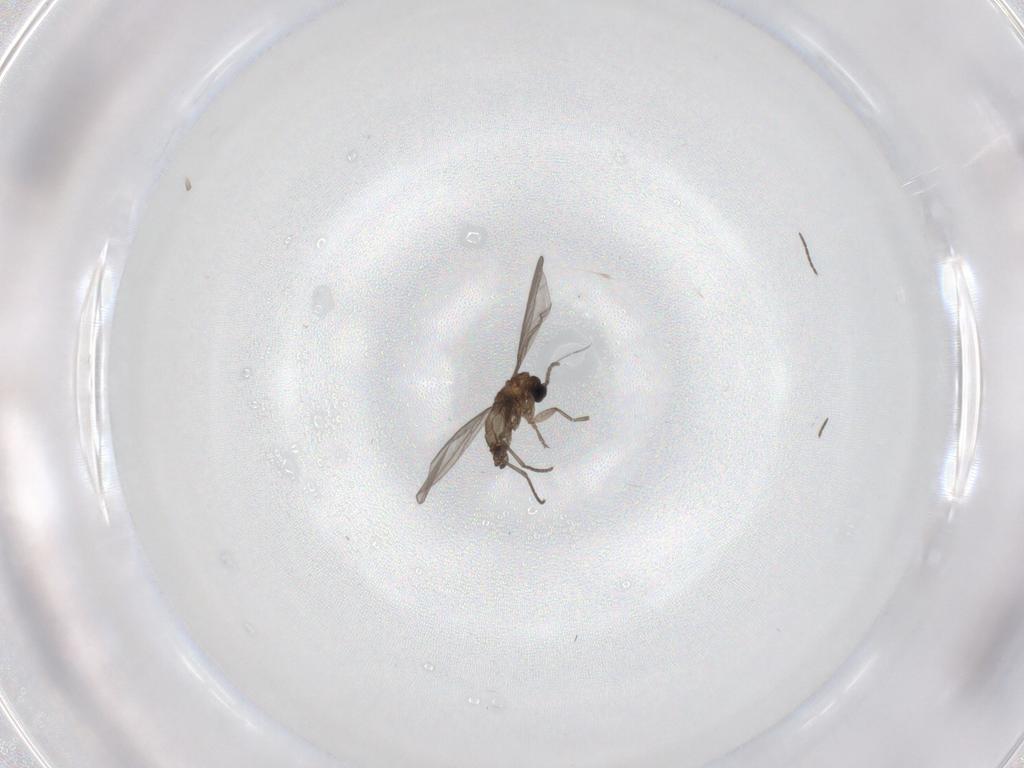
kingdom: Animalia
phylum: Arthropoda
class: Insecta
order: Diptera
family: Sciaridae
